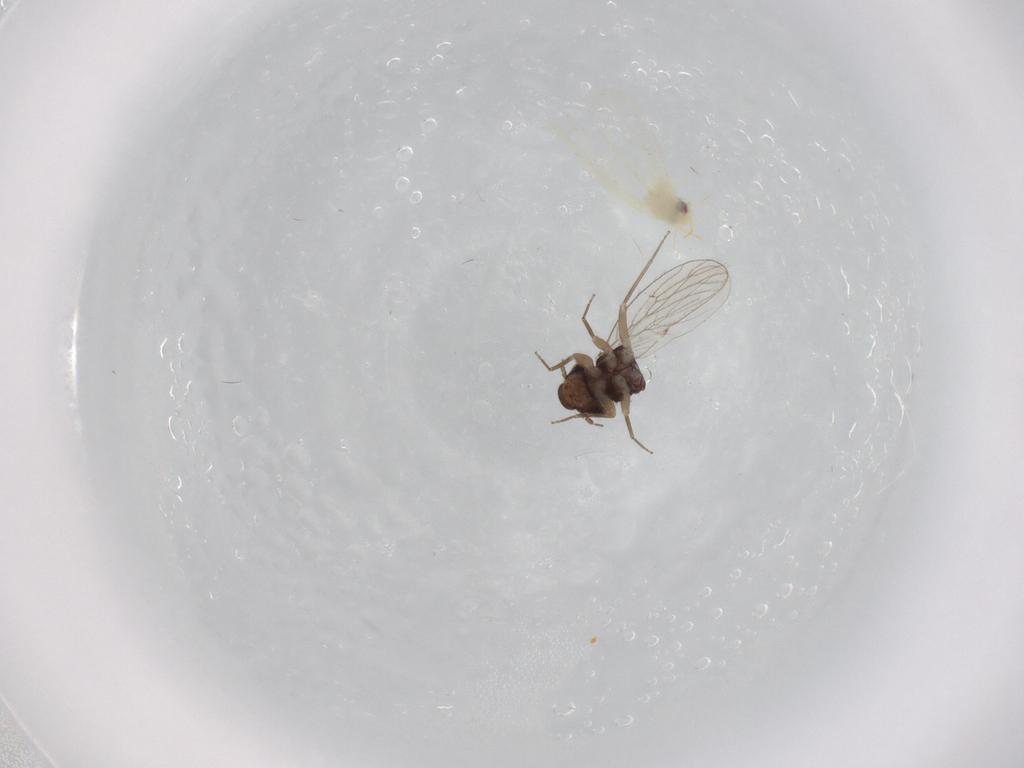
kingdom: Animalia
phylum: Arthropoda
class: Insecta
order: Psocodea
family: Psoquillidae
